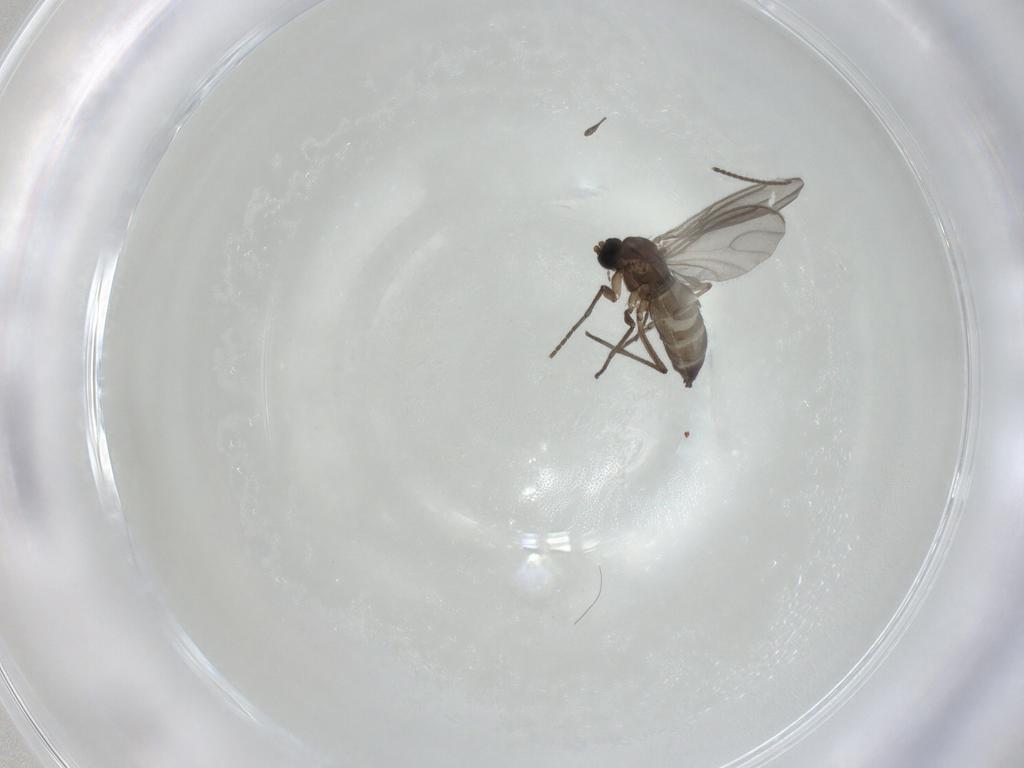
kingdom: Animalia
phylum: Arthropoda
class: Insecta
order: Diptera
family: Sciaridae
